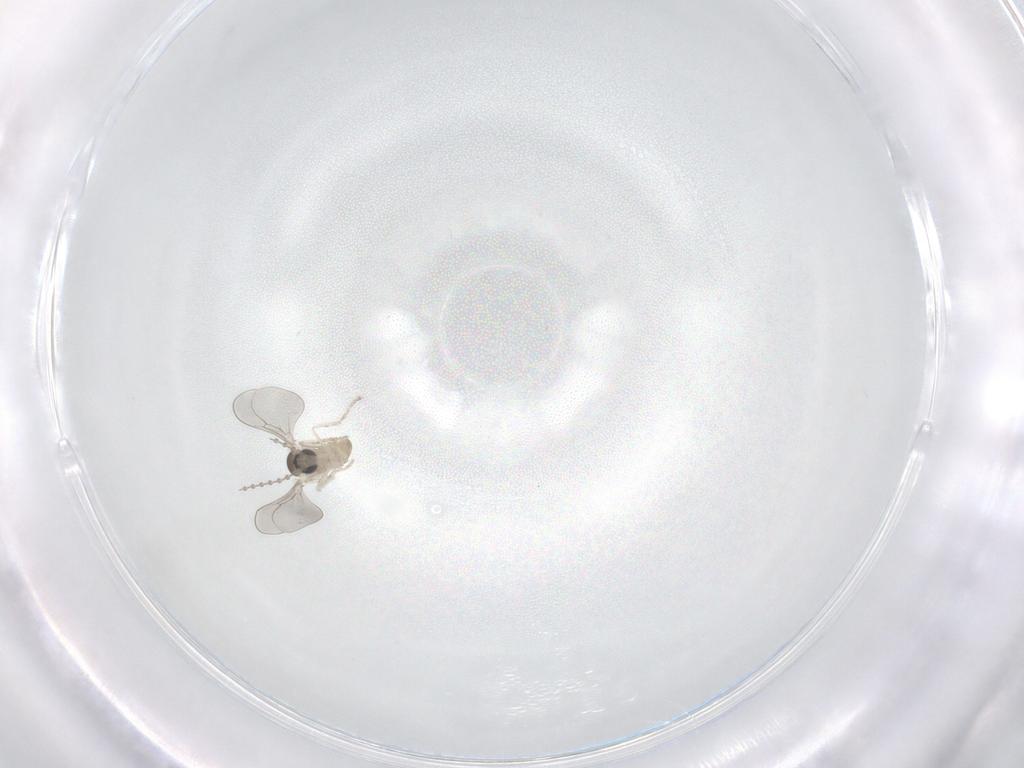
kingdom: Animalia
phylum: Arthropoda
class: Insecta
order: Diptera
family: Cecidomyiidae
